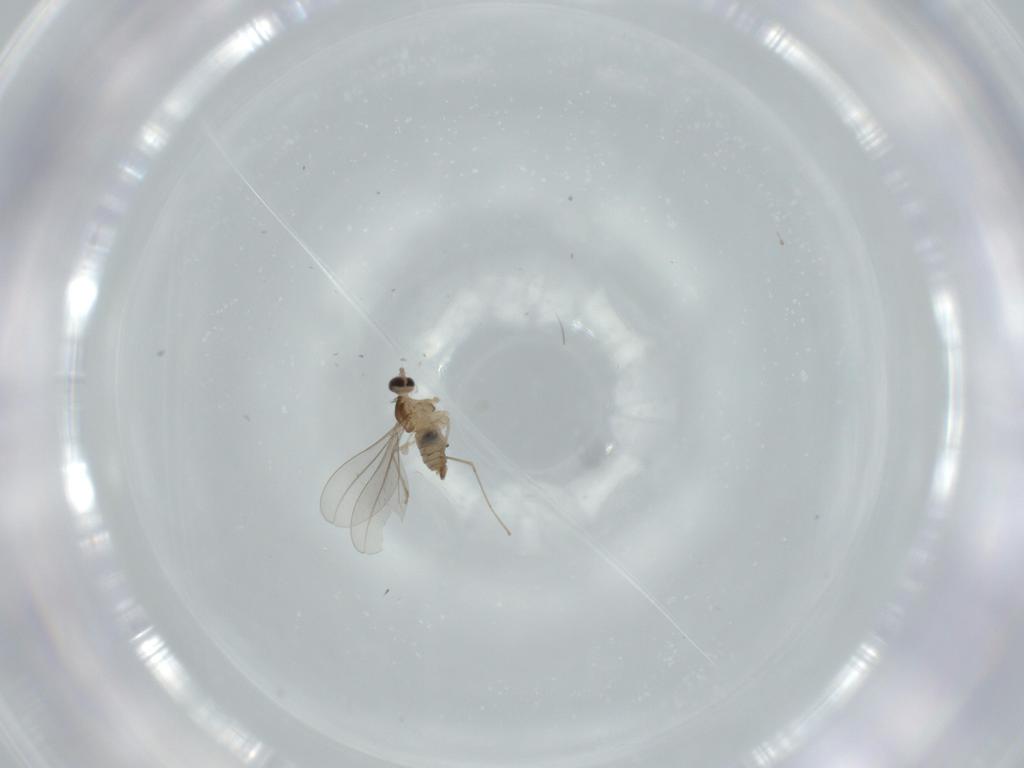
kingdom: Animalia
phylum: Arthropoda
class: Insecta
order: Diptera
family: Cecidomyiidae
